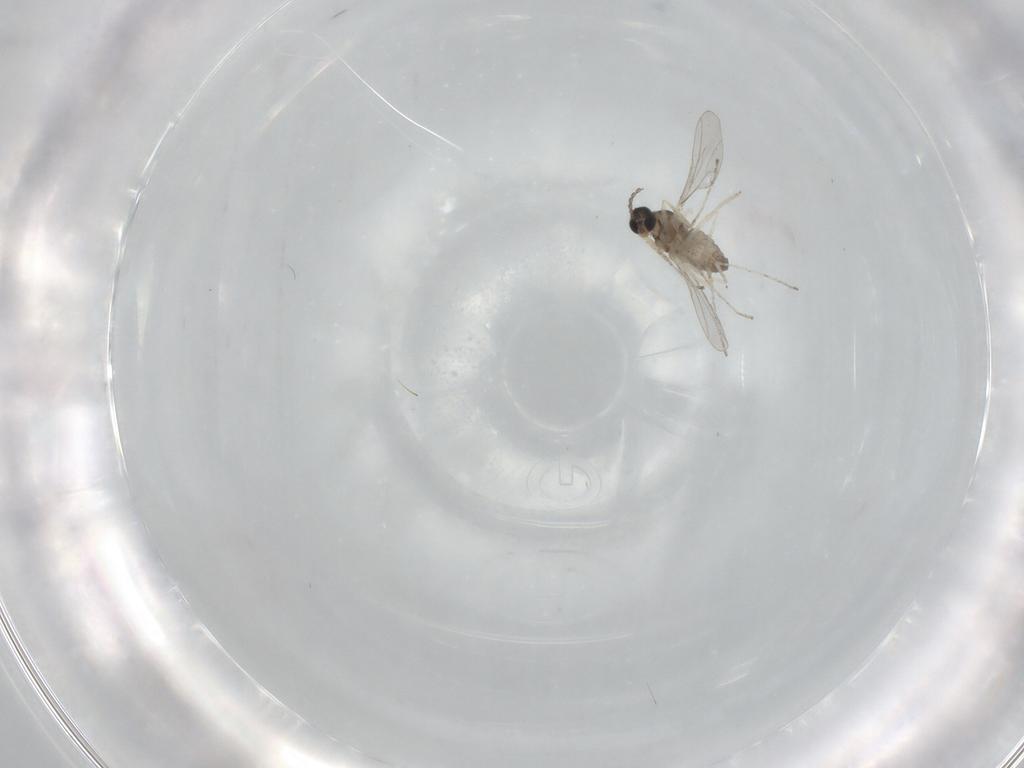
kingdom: Animalia
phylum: Arthropoda
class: Insecta
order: Diptera
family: Cecidomyiidae
